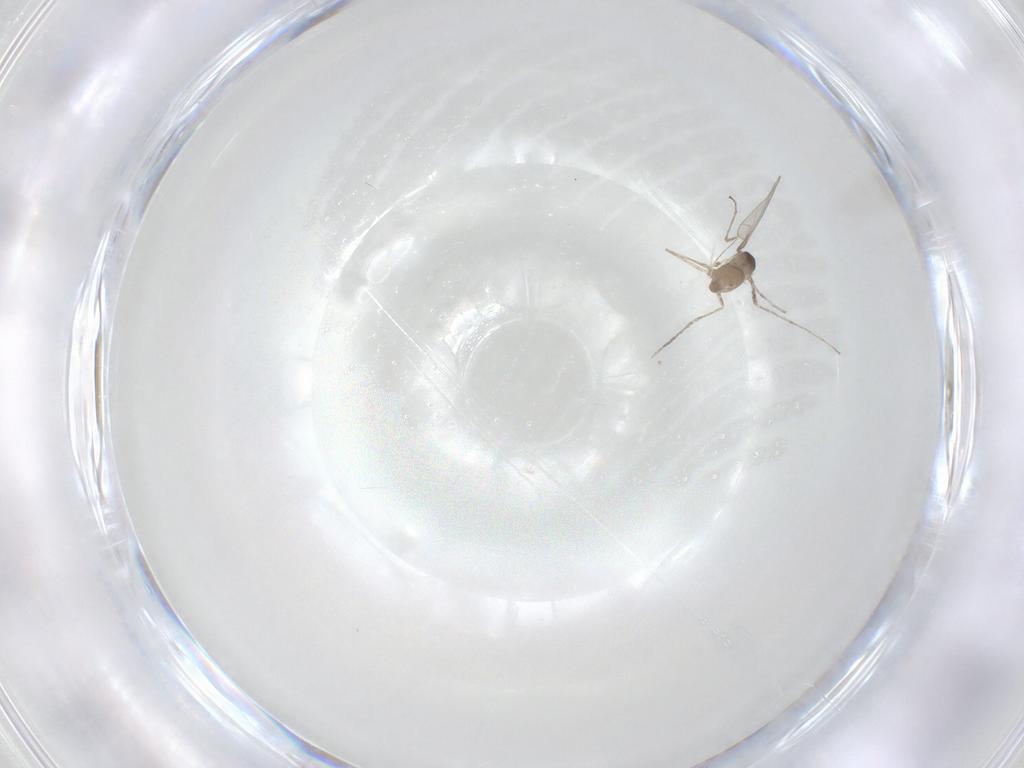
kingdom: Animalia
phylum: Arthropoda
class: Insecta
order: Diptera
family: Cecidomyiidae
